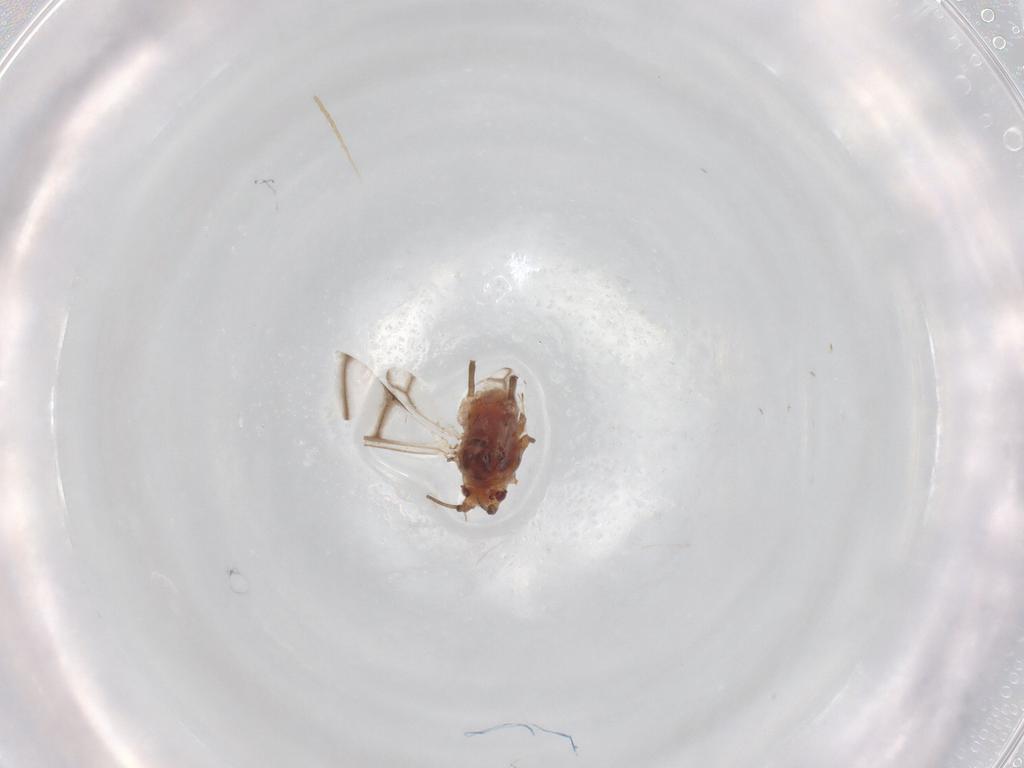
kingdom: Animalia
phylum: Arthropoda
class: Insecta
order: Hemiptera
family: Aphididae
